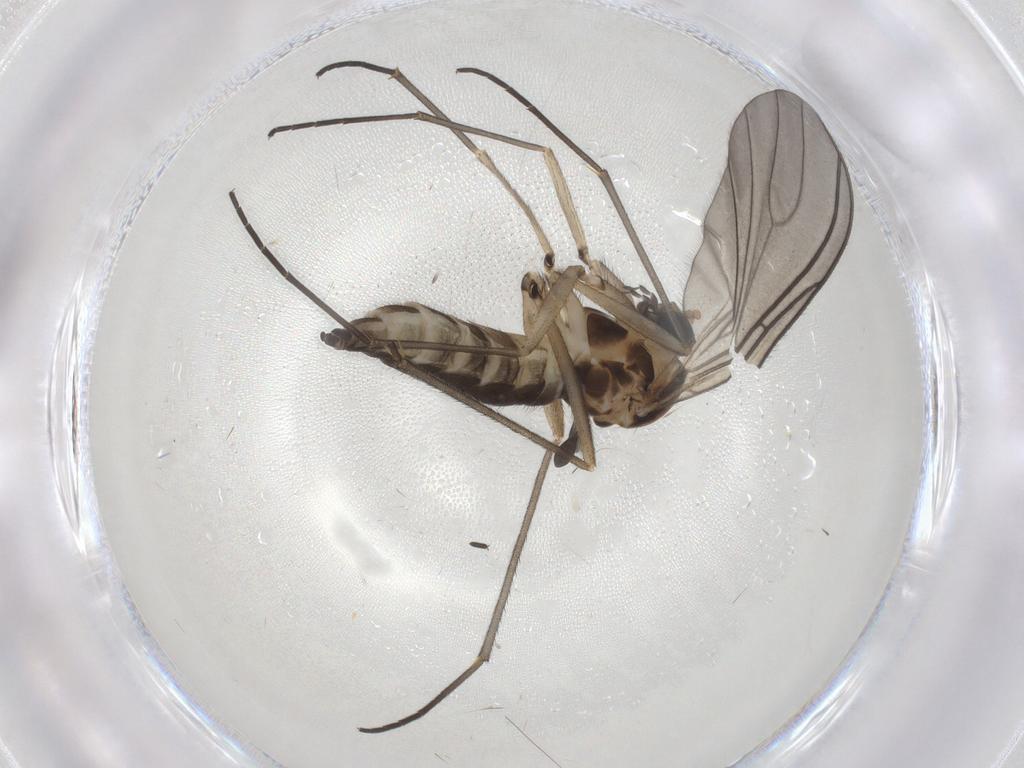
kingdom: Animalia
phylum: Arthropoda
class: Insecta
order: Diptera
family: Sciaridae
